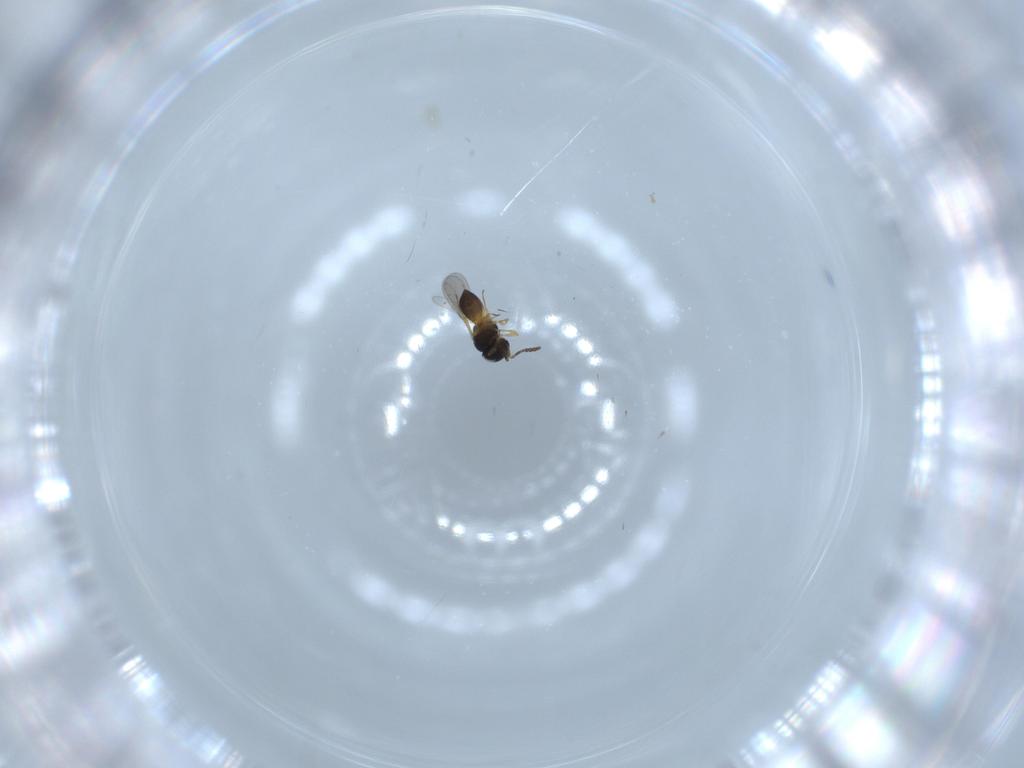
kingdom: Animalia
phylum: Arthropoda
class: Insecta
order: Hymenoptera
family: Scelionidae
